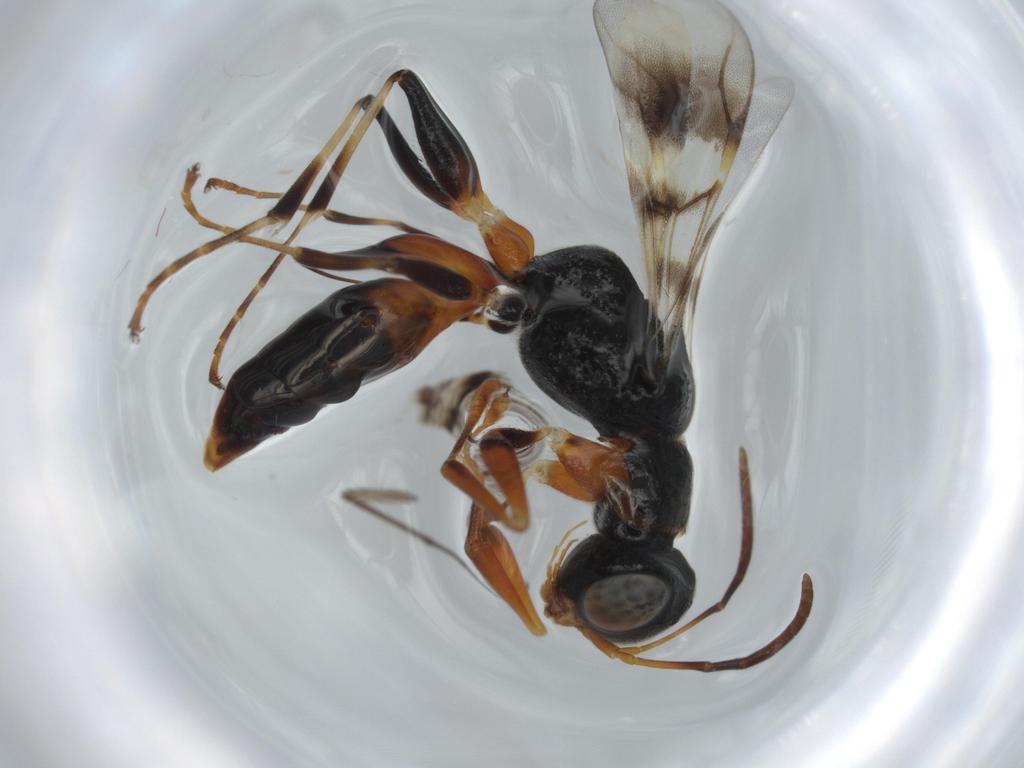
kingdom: Animalia
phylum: Arthropoda
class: Insecta
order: Hymenoptera
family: Dryinidae
